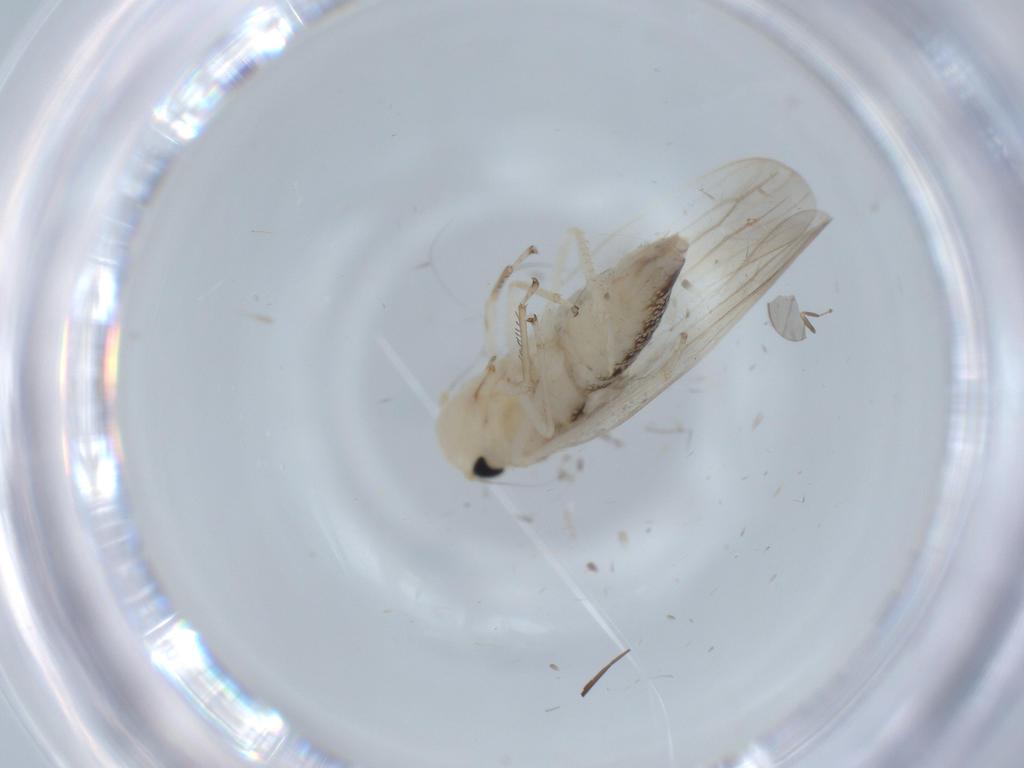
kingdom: Animalia
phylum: Arthropoda
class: Insecta
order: Hemiptera
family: Cicadellidae
